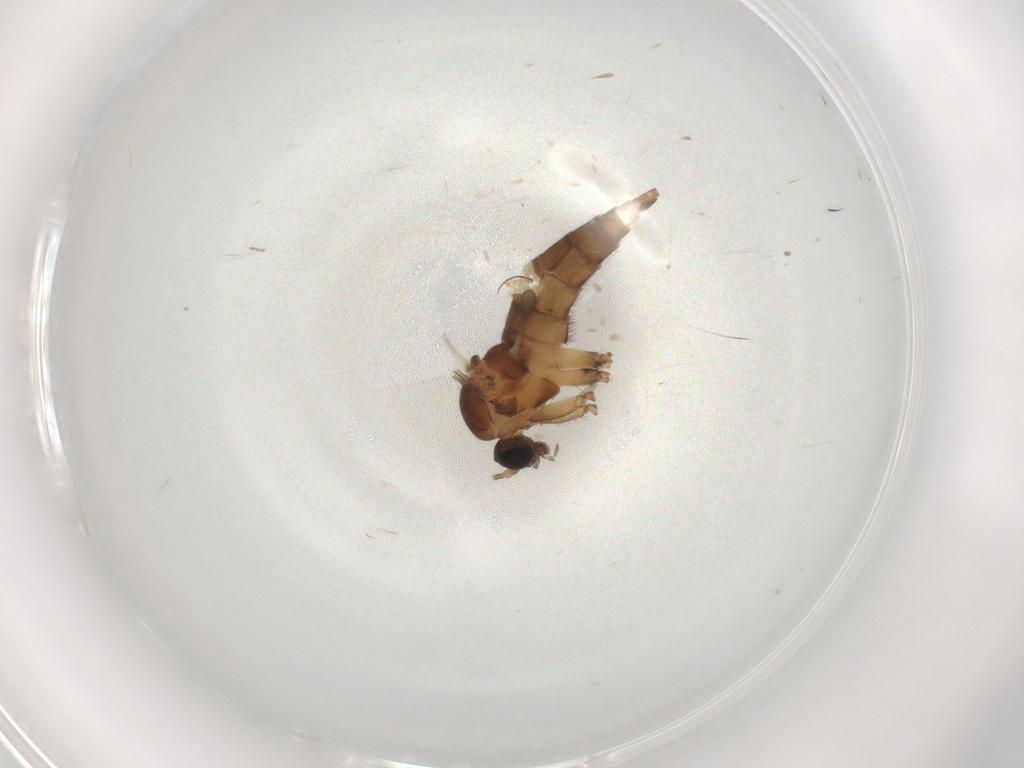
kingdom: Animalia
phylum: Arthropoda
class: Insecta
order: Diptera
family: Sciaridae
